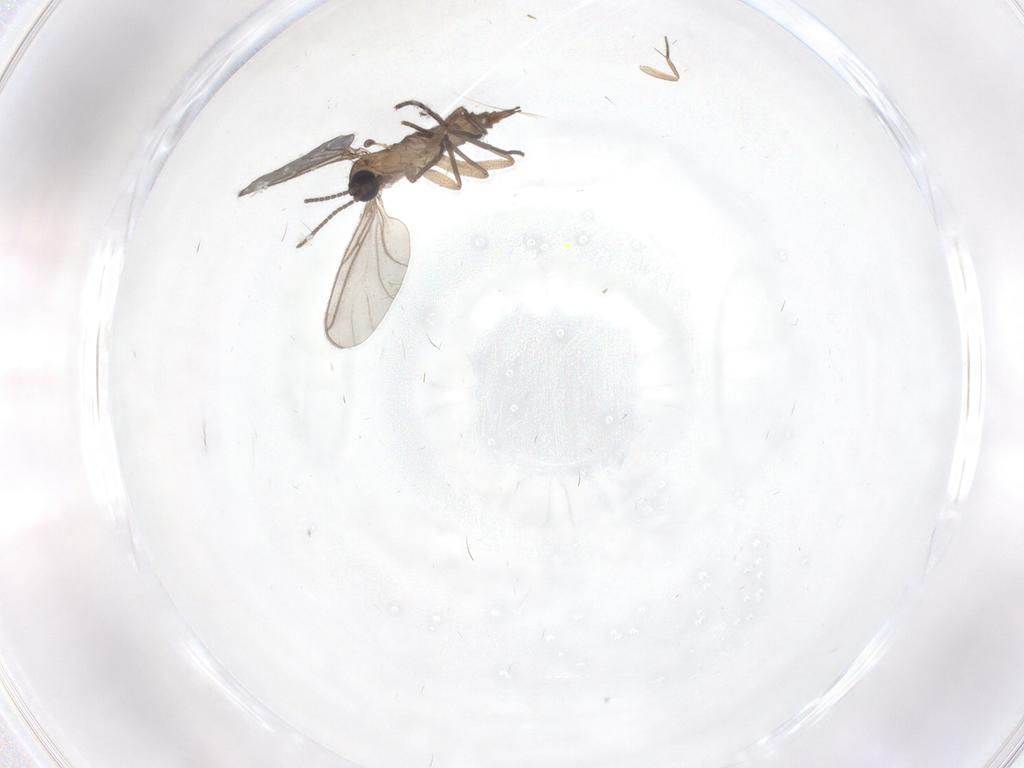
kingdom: Animalia
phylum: Arthropoda
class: Insecta
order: Diptera
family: Sciaridae
